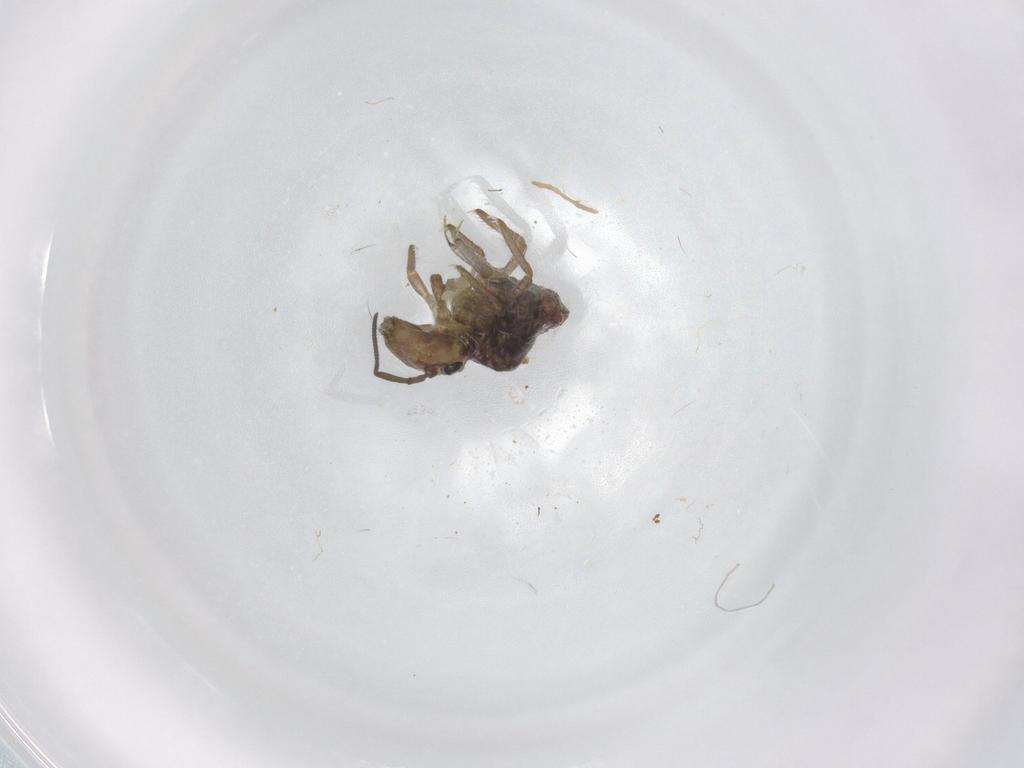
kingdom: Animalia
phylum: Arthropoda
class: Collembola
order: Symphypleona
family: Sminthuridae
